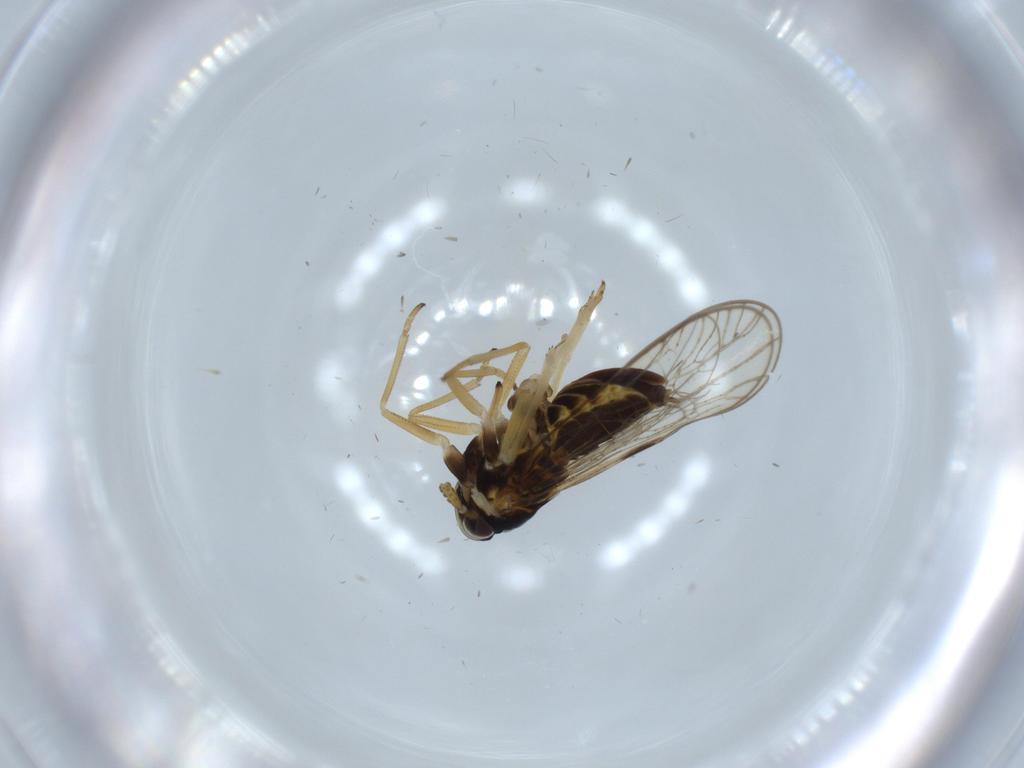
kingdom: Animalia
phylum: Arthropoda
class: Insecta
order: Hemiptera
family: Cicadellidae
